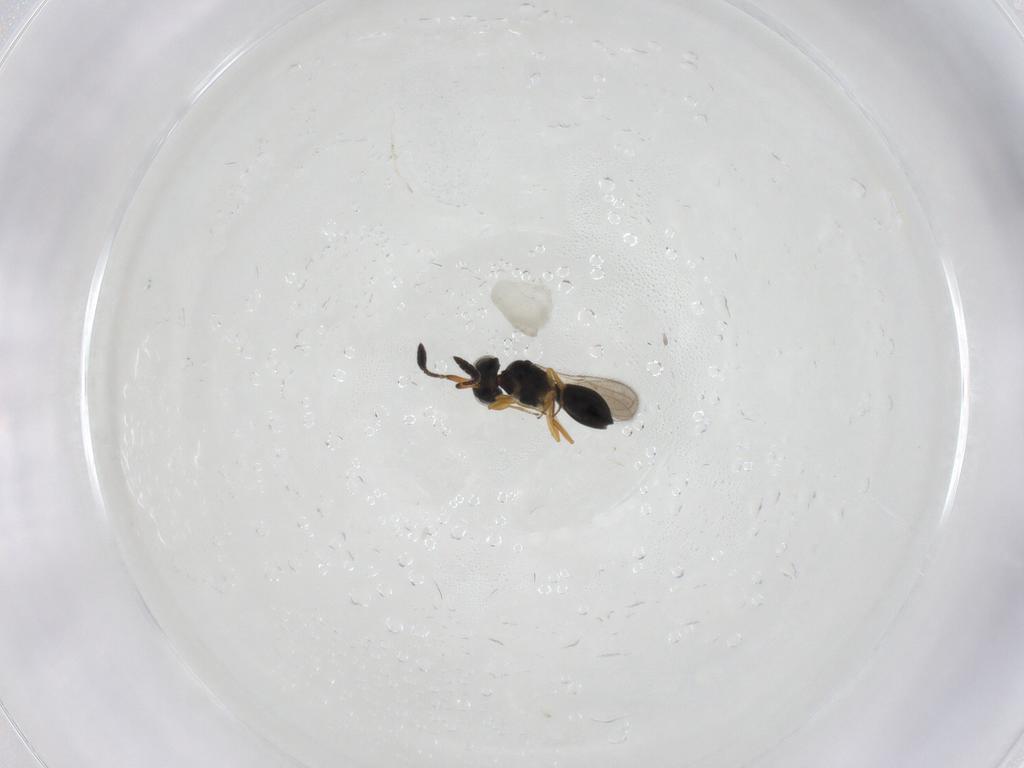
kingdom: Animalia
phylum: Arthropoda
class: Insecta
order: Hymenoptera
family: Scelionidae
